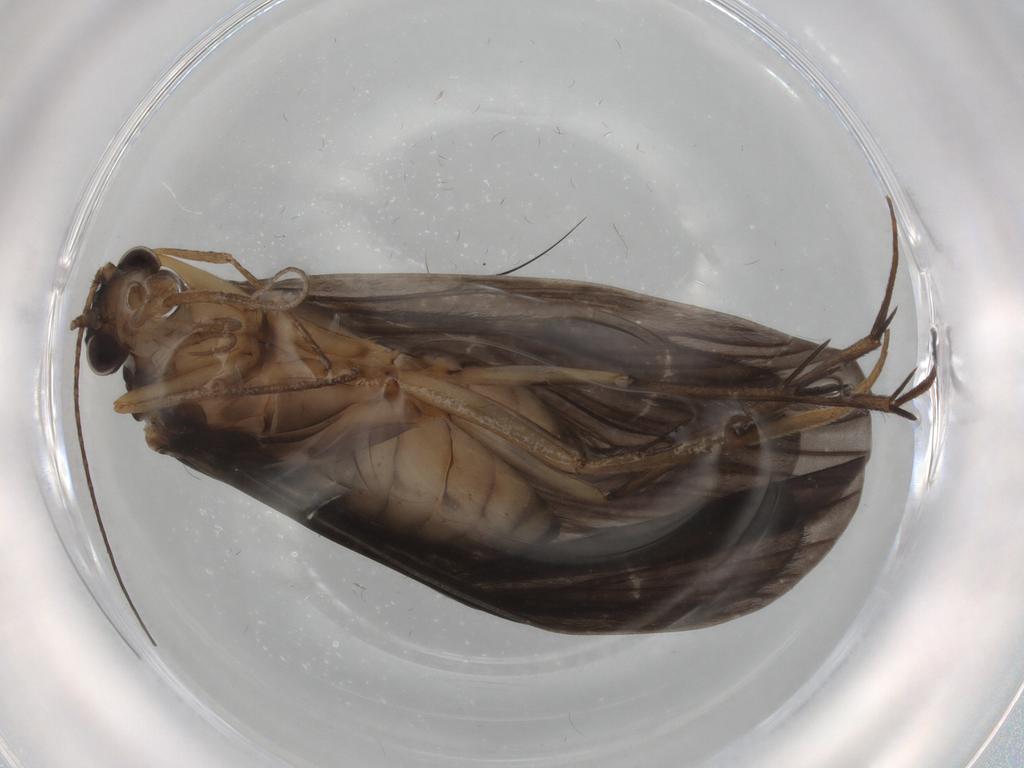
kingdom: Animalia
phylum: Arthropoda
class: Insecta
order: Trichoptera
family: Philopotamidae
